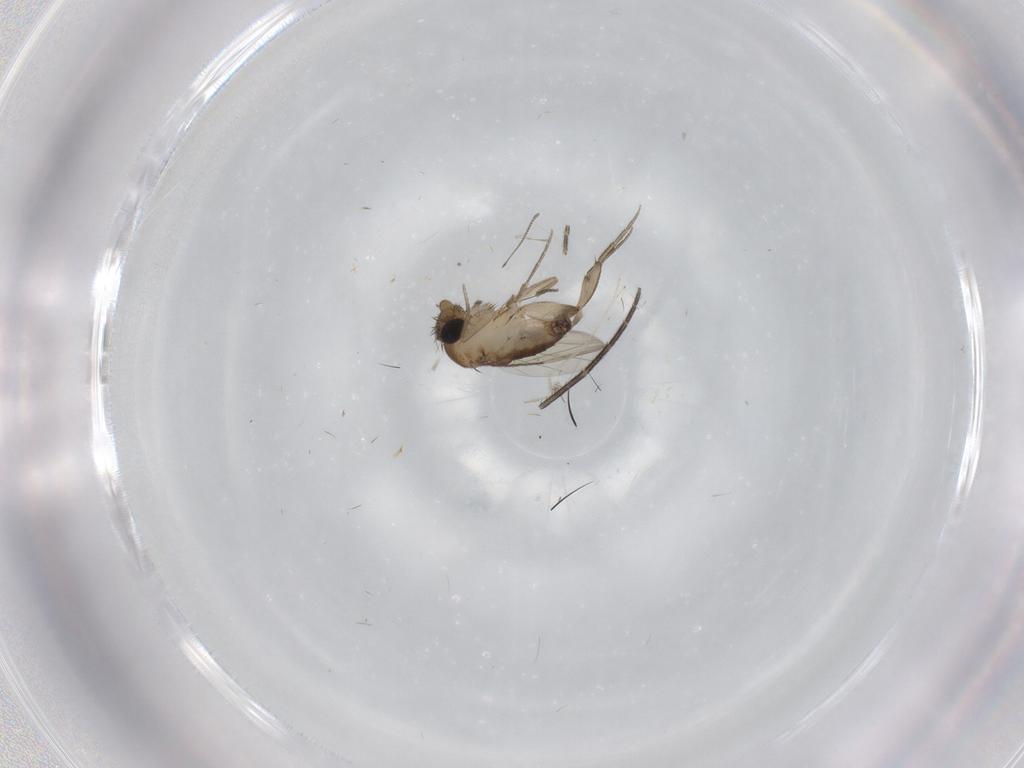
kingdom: Animalia
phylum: Arthropoda
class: Insecta
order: Diptera
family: Phoridae
